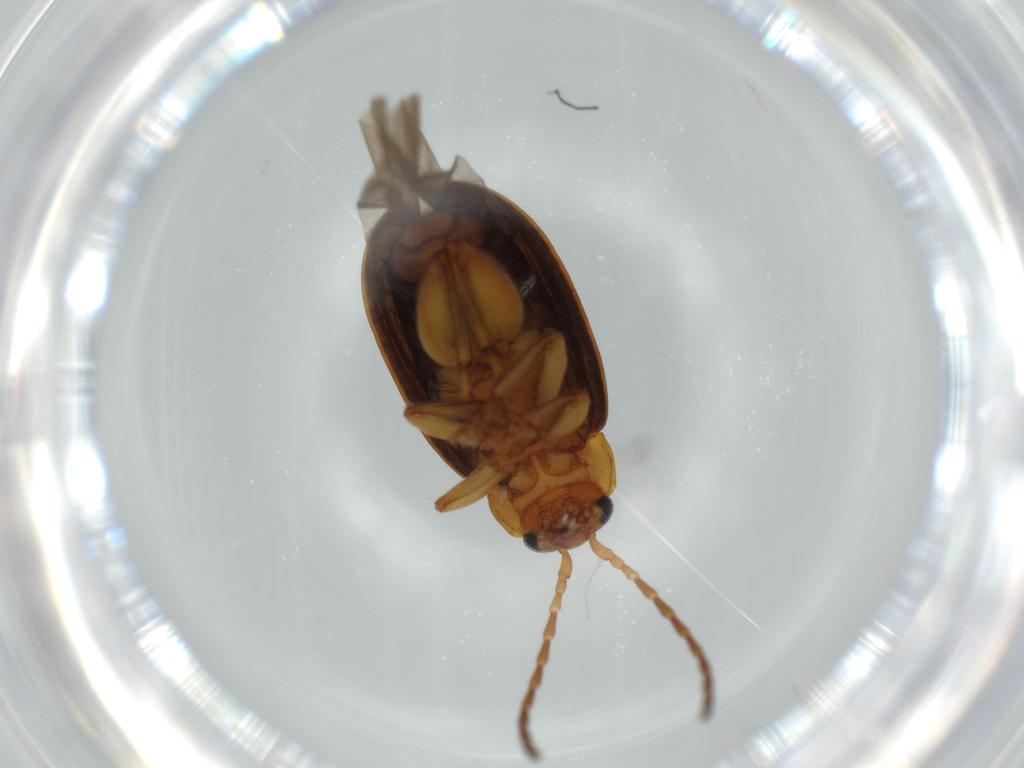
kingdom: Animalia
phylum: Arthropoda
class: Insecta
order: Coleoptera
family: Chrysomelidae
